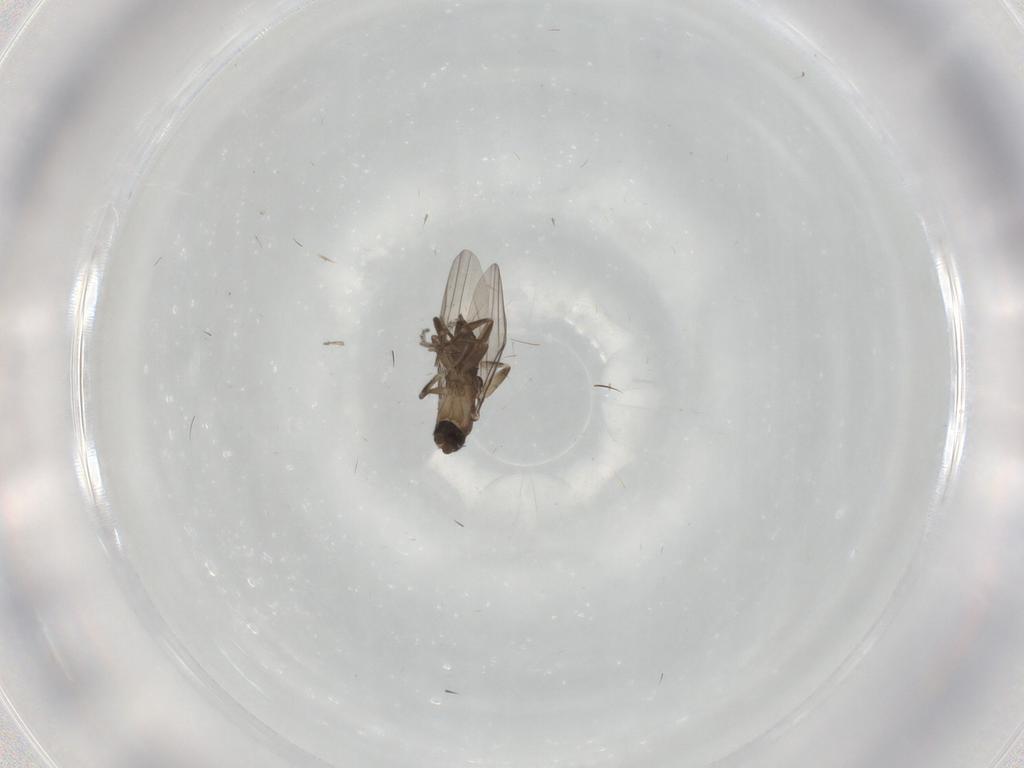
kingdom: Animalia
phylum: Arthropoda
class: Insecta
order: Diptera
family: Phoridae
